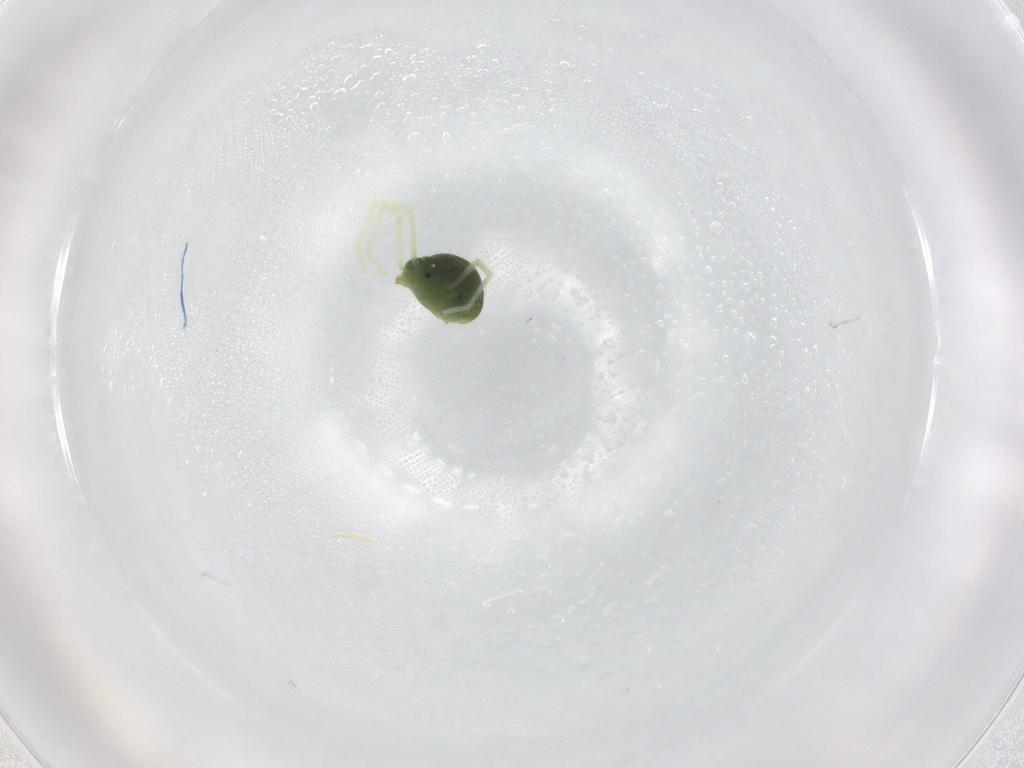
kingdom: Animalia
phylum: Arthropoda
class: Arachnida
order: Trombidiformes
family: Penthaleidae
